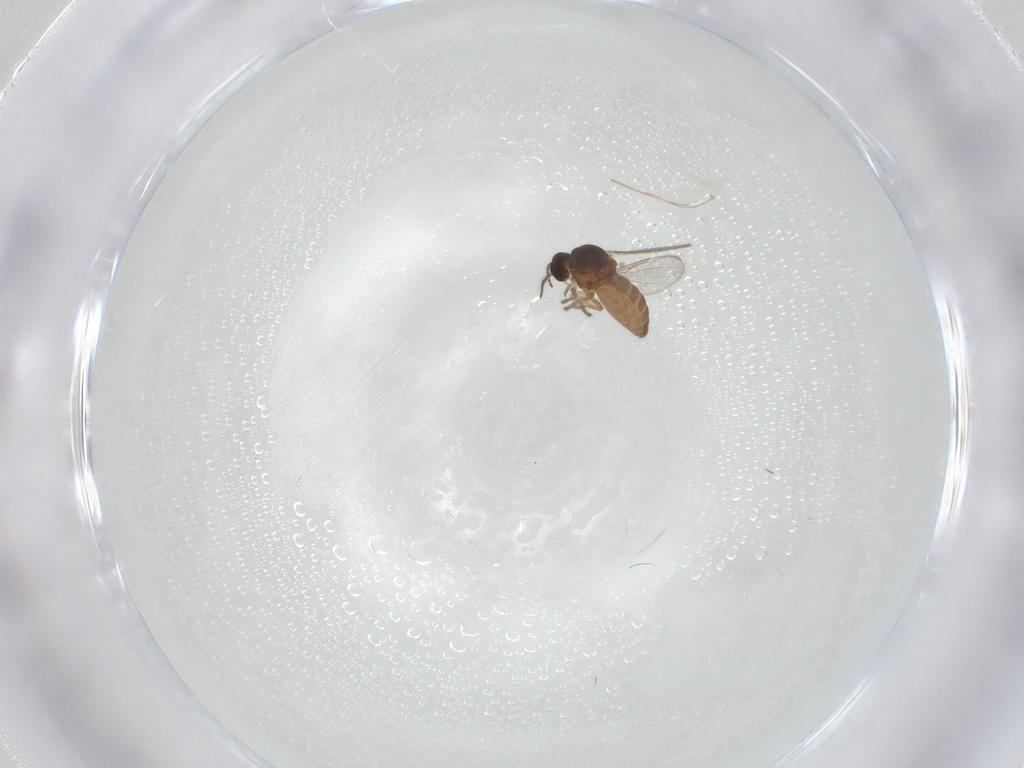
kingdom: Animalia
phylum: Arthropoda
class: Insecta
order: Diptera
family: Ceratopogonidae
